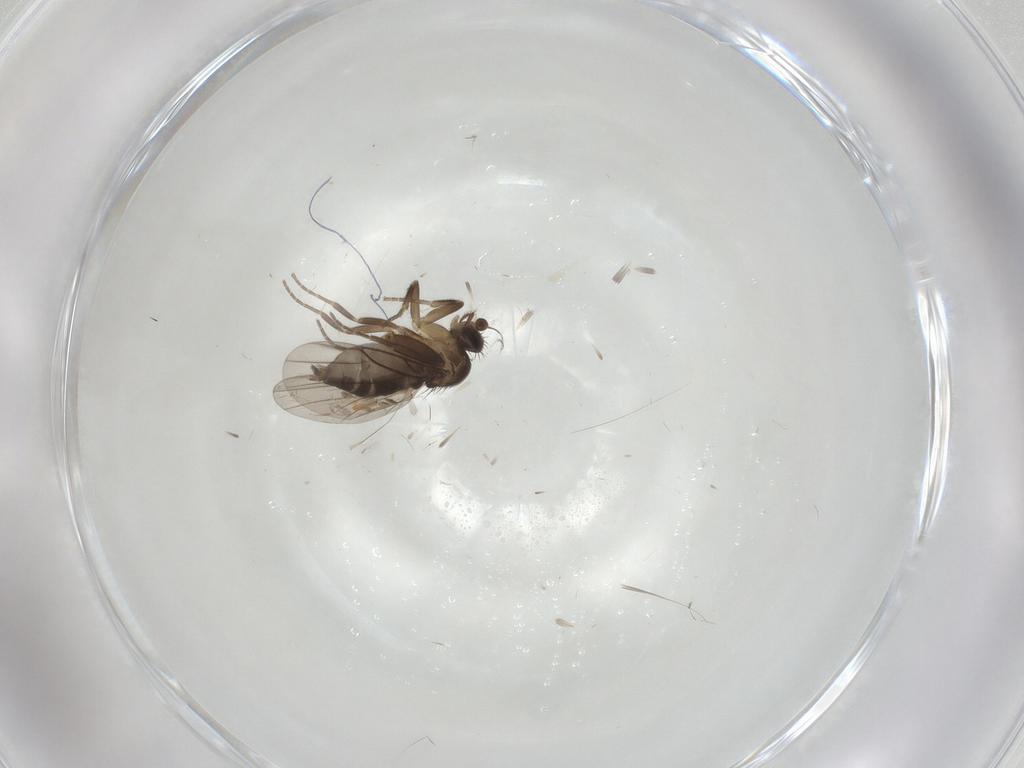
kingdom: Animalia
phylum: Arthropoda
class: Insecta
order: Diptera
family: Phoridae
